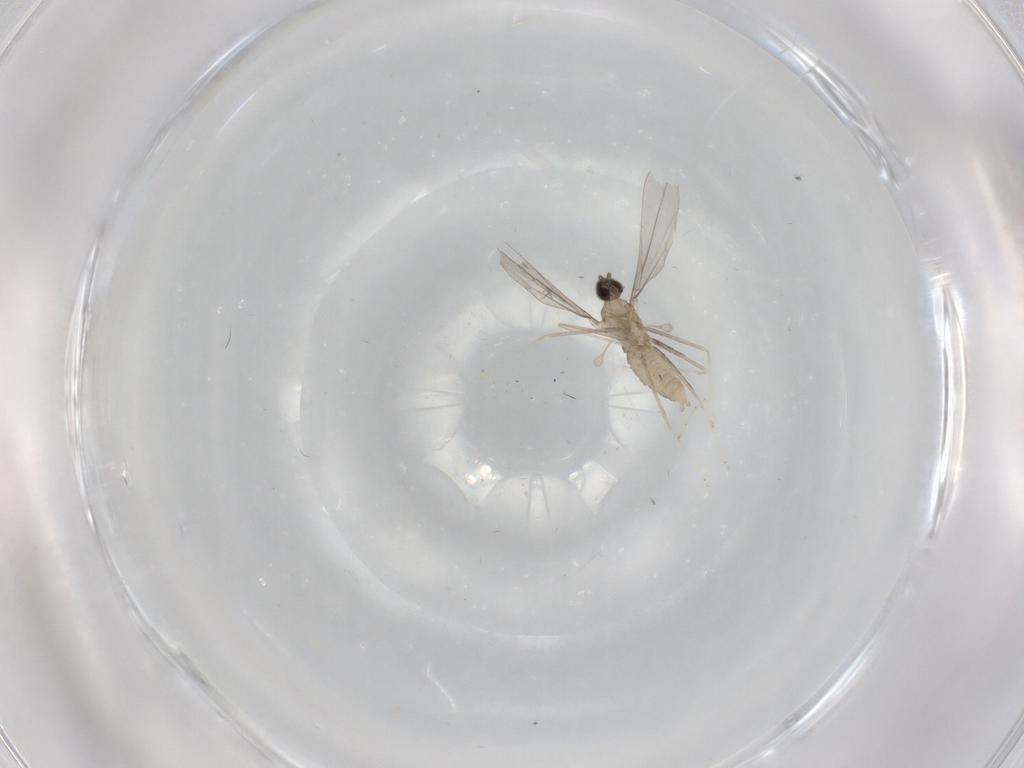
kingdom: Animalia
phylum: Arthropoda
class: Insecta
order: Diptera
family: Cecidomyiidae
